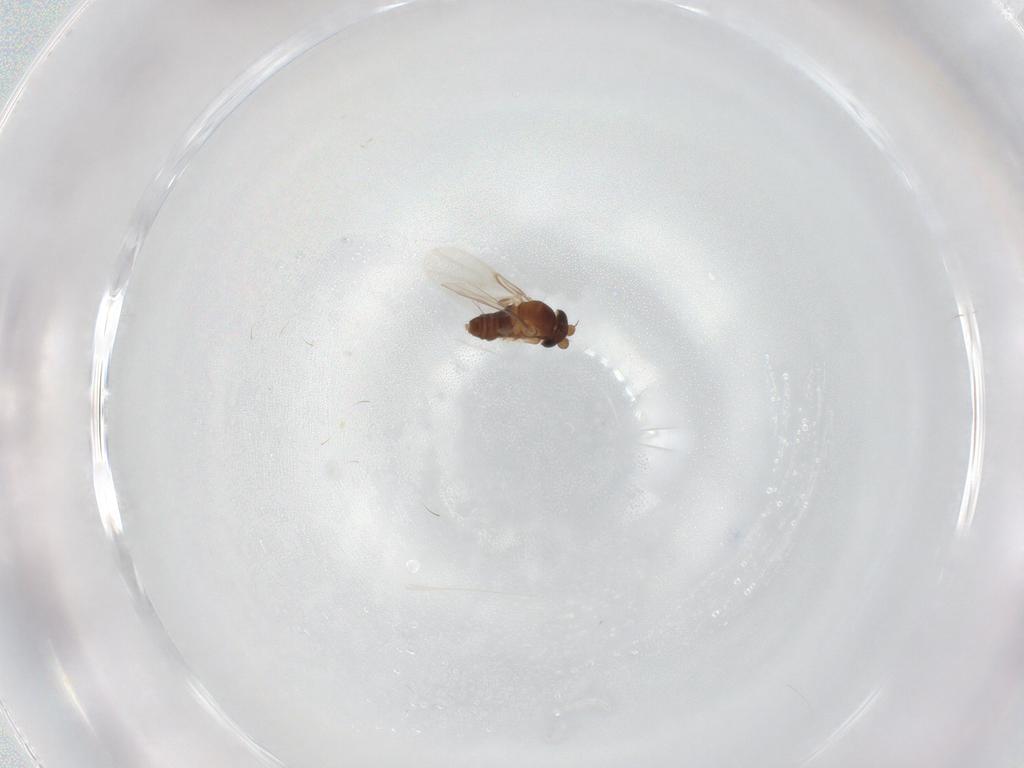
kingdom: Animalia
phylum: Arthropoda
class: Insecta
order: Diptera
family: Phoridae
